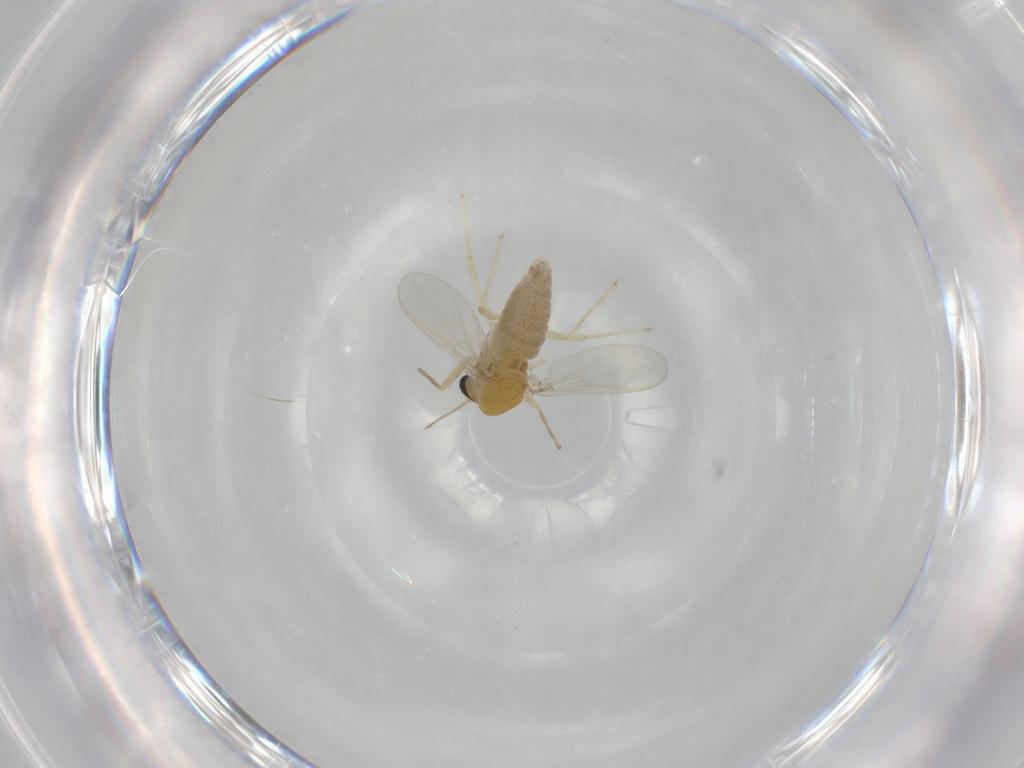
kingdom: Animalia
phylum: Arthropoda
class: Insecta
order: Diptera
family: Chironomidae
